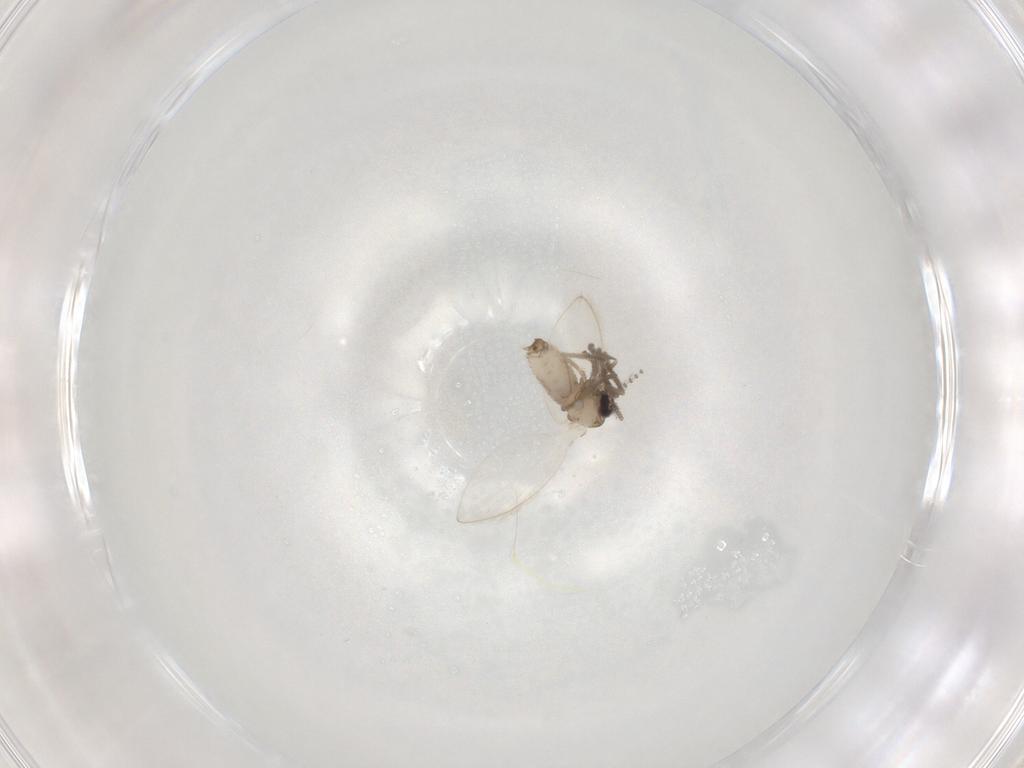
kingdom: Animalia
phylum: Arthropoda
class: Insecta
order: Diptera
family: Psychodidae
